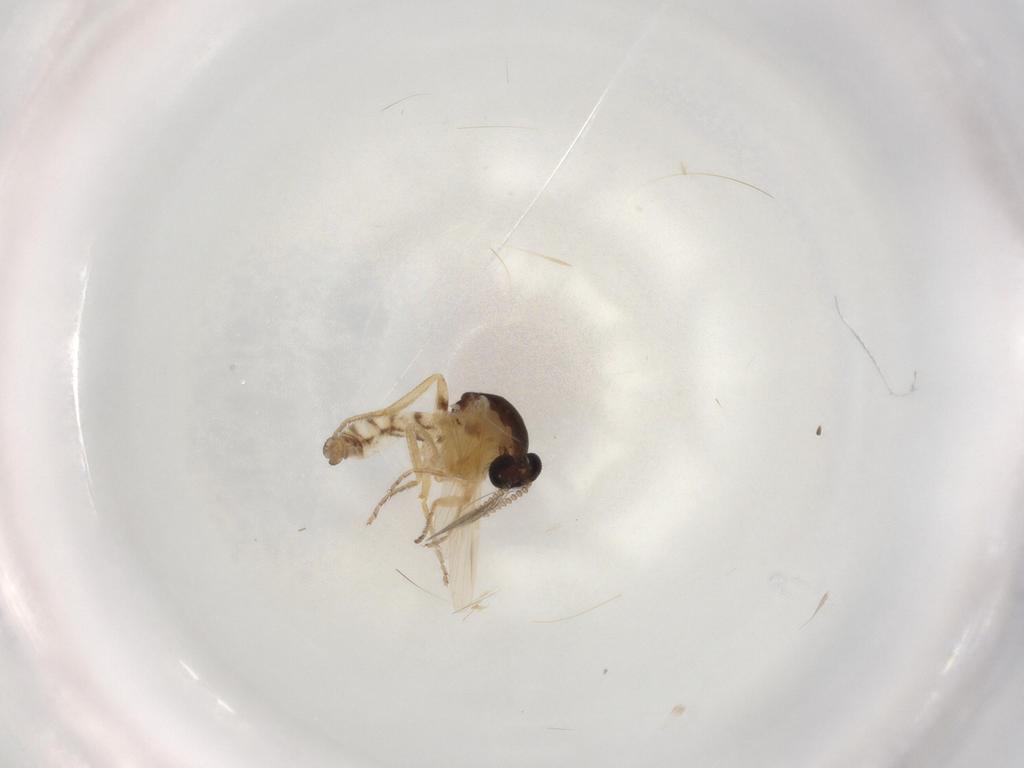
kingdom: Animalia
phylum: Arthropoda
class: Insecta
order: Diptera
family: Ceratopogonidae
